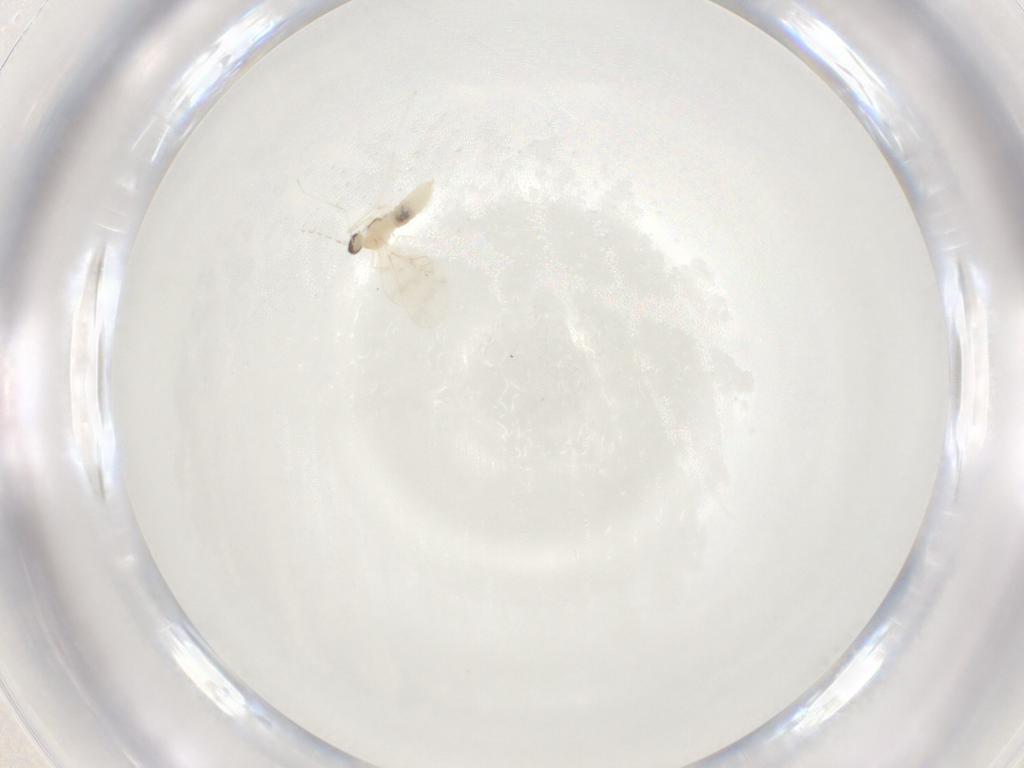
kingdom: Animalia
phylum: Arthropoda
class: Insecta
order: Diptera
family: Cecidomyiidae
